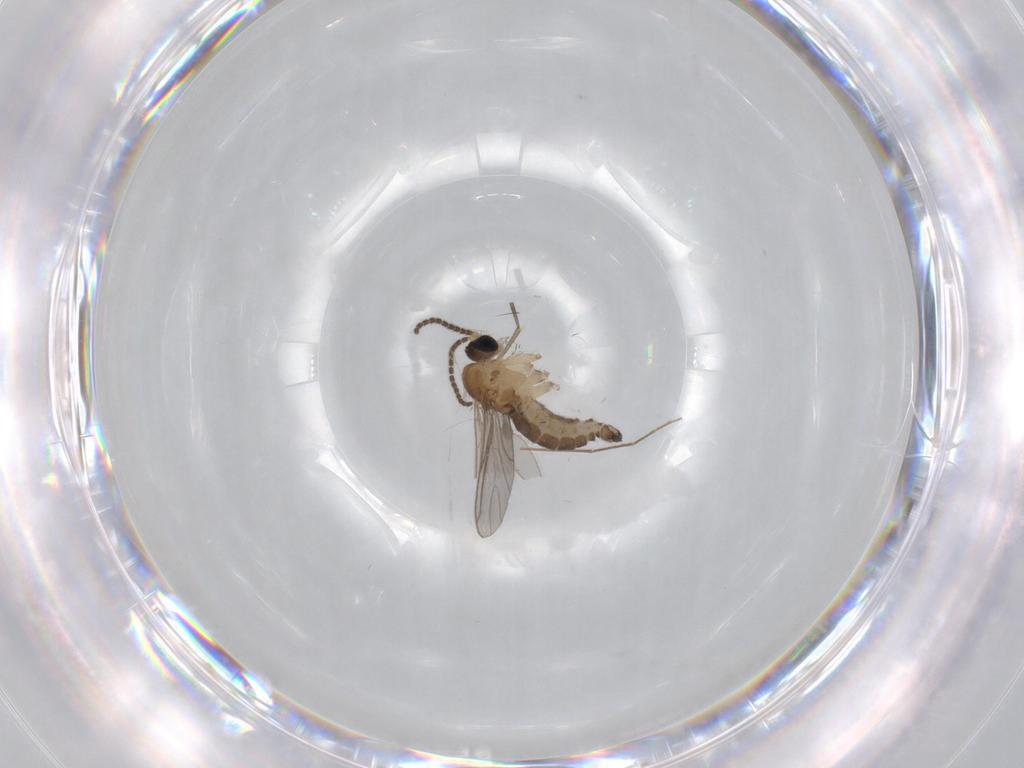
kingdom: Animalia
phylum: Arthropoda
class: Insecta
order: Diptera
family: Sciaridae
